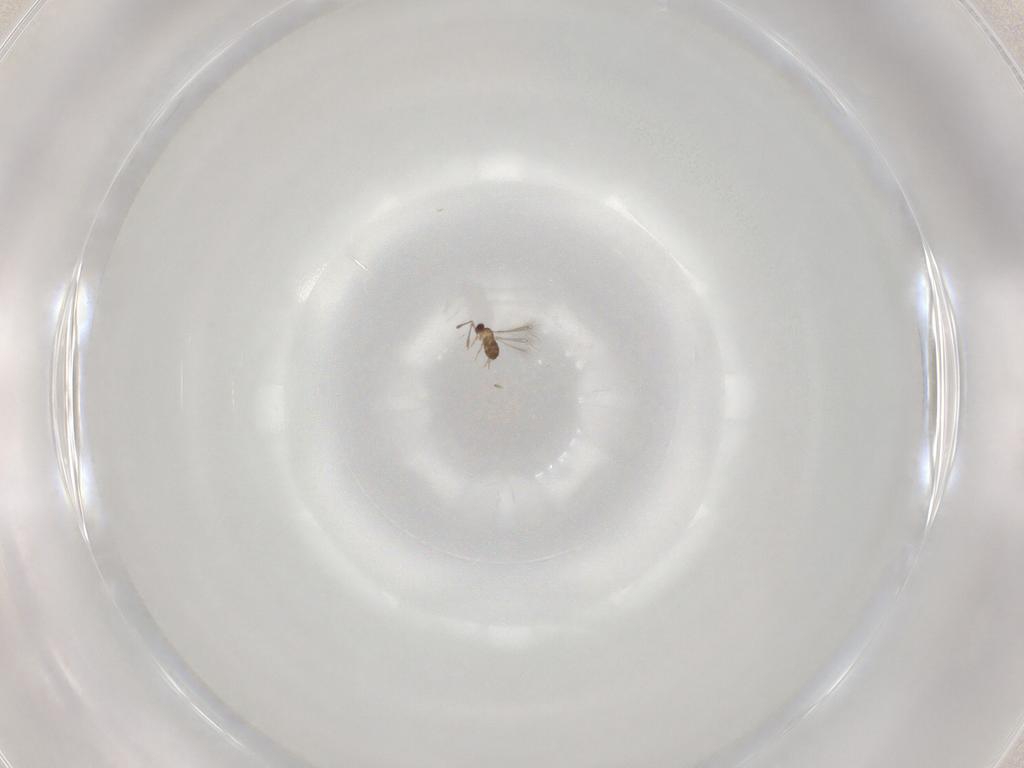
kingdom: Animalia
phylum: Arthropoda
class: Insecta
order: Hymenoptera
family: Mymaridae
